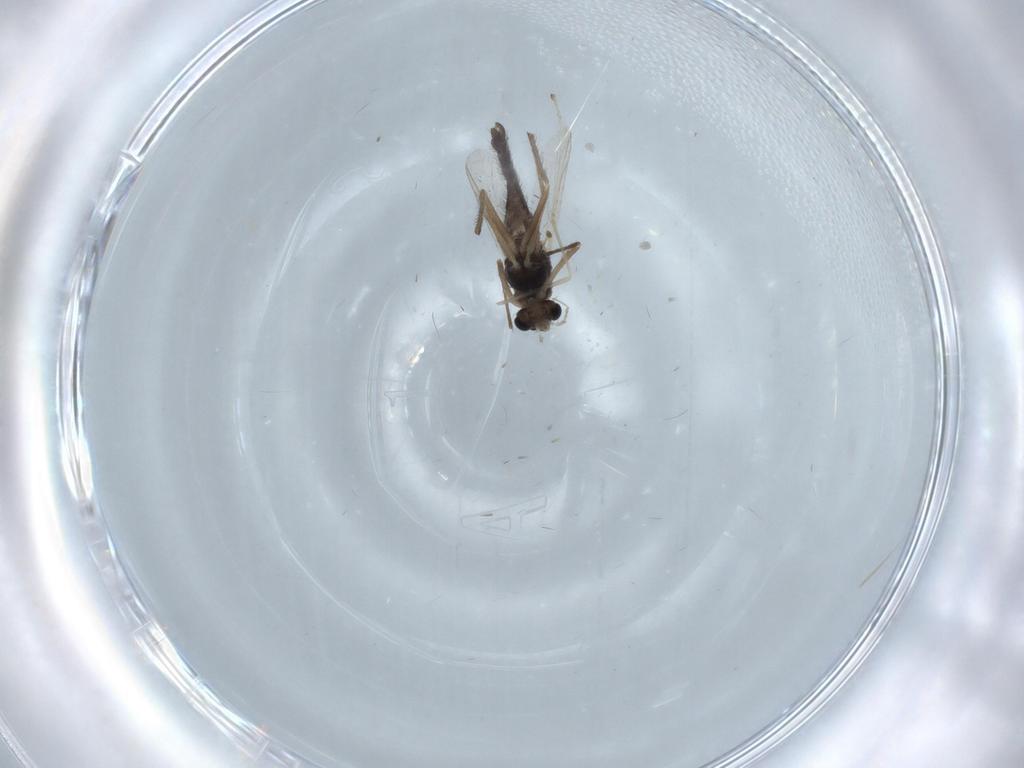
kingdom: Animalia
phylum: Arthropoda
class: Insecta
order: Diptera
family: Chironomidae
